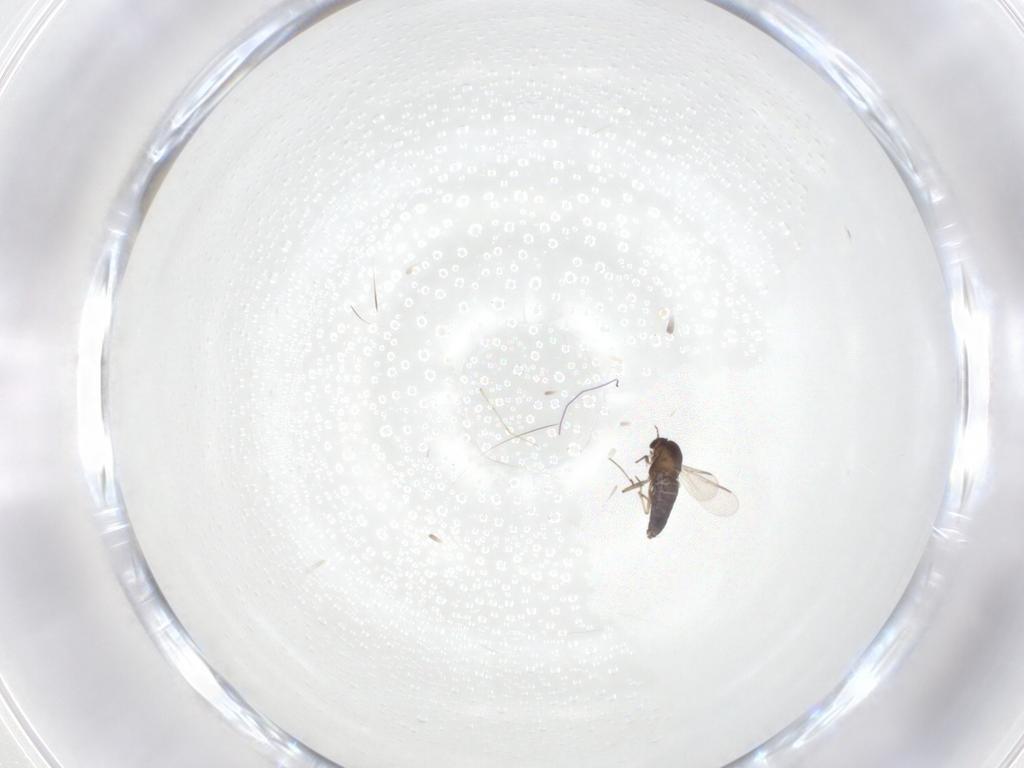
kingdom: Animalia
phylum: Arthropoda
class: Insecta
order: Diptera
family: Cecidomyiidae
